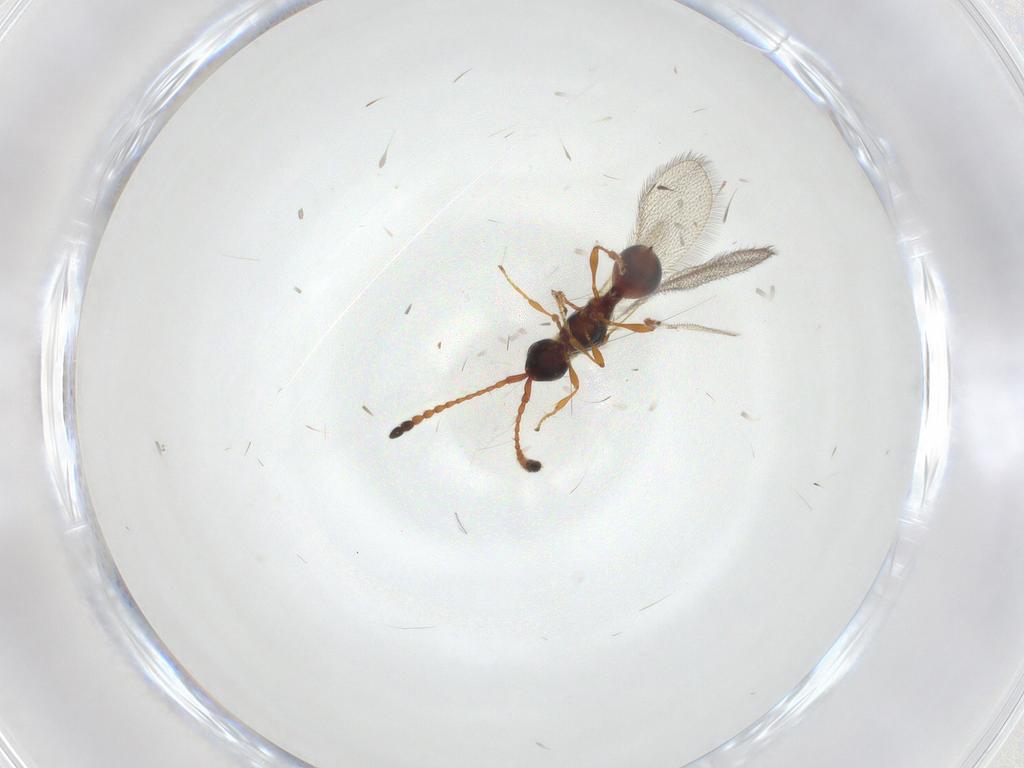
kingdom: Animalia
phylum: Arthropoda
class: Insecta
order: Hymenoptera
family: Diapriidae
